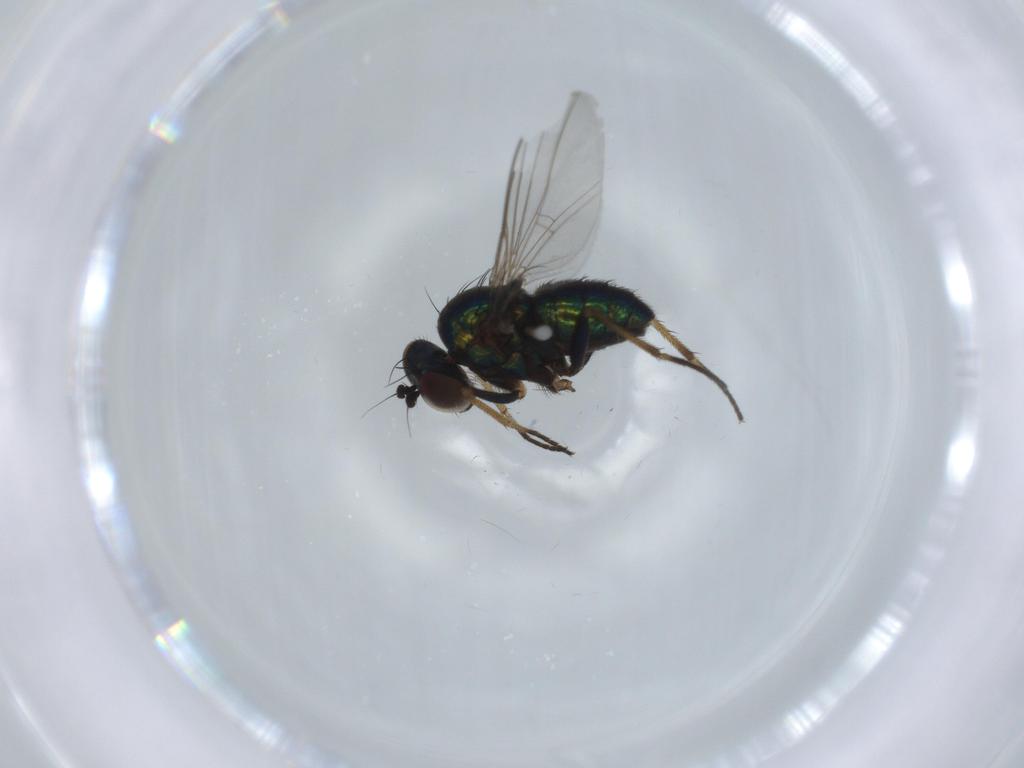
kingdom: Animalia
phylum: Arthropoda
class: Insecta
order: Diptera
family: Dolichopodidae
